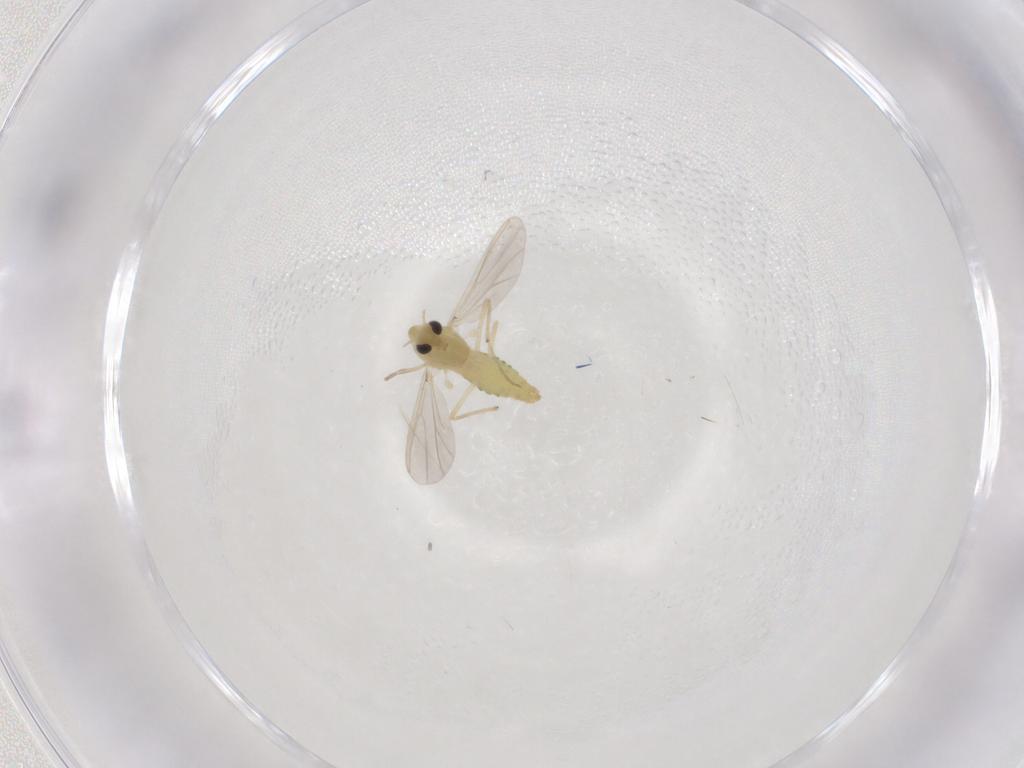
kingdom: Animalia
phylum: Arthropoda
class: Insecta
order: Diptera
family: Chironomidae
